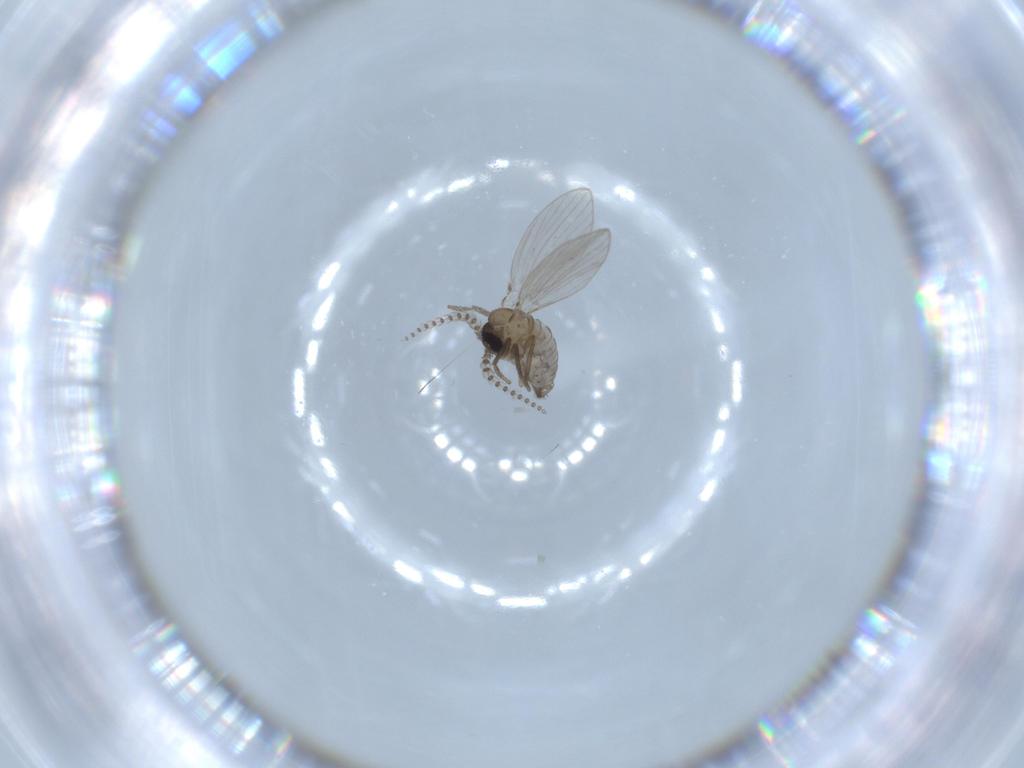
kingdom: Animalia
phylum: Arthropoda
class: Insecta
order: Diptera
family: Psychodidae
